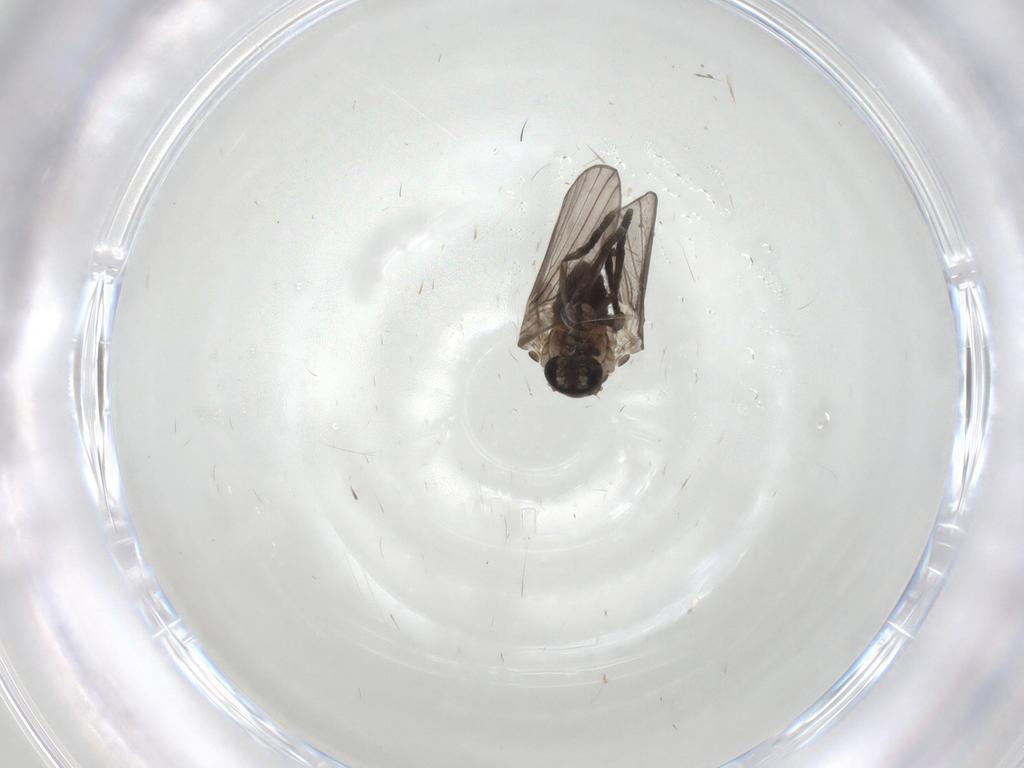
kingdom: Animalia
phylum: Arthropoda
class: Insecta
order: Diptera
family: Psychodidae
